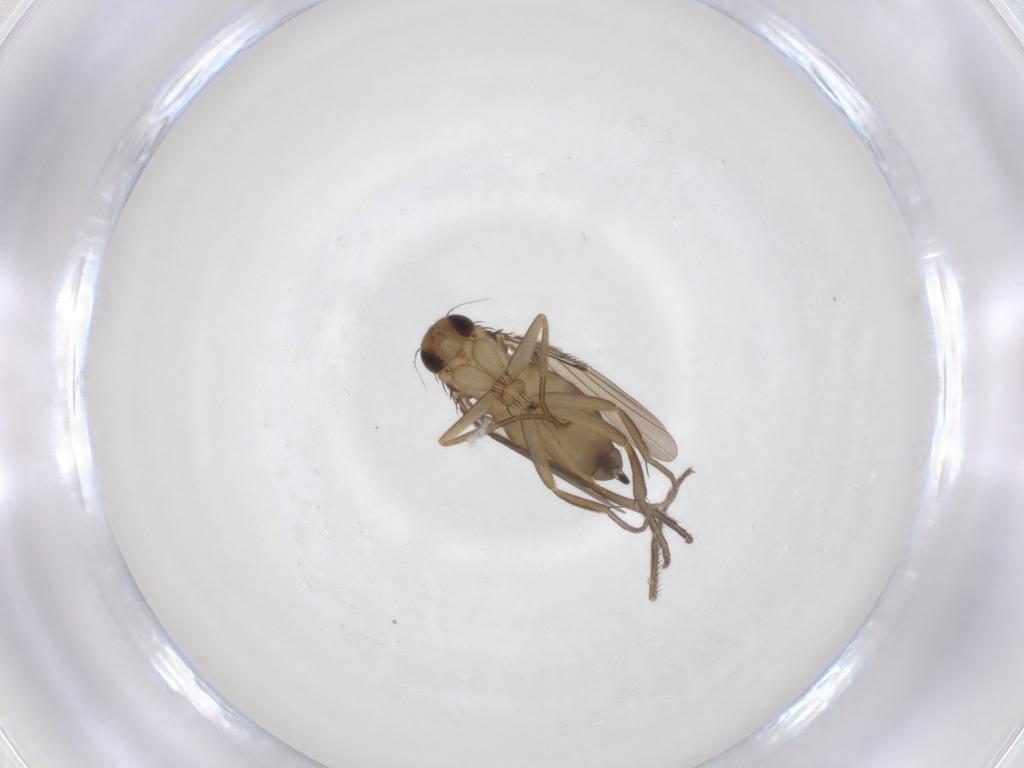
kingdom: Animalia
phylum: Arthropoda
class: Insecta
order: Diptera
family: Mycetophilidae
